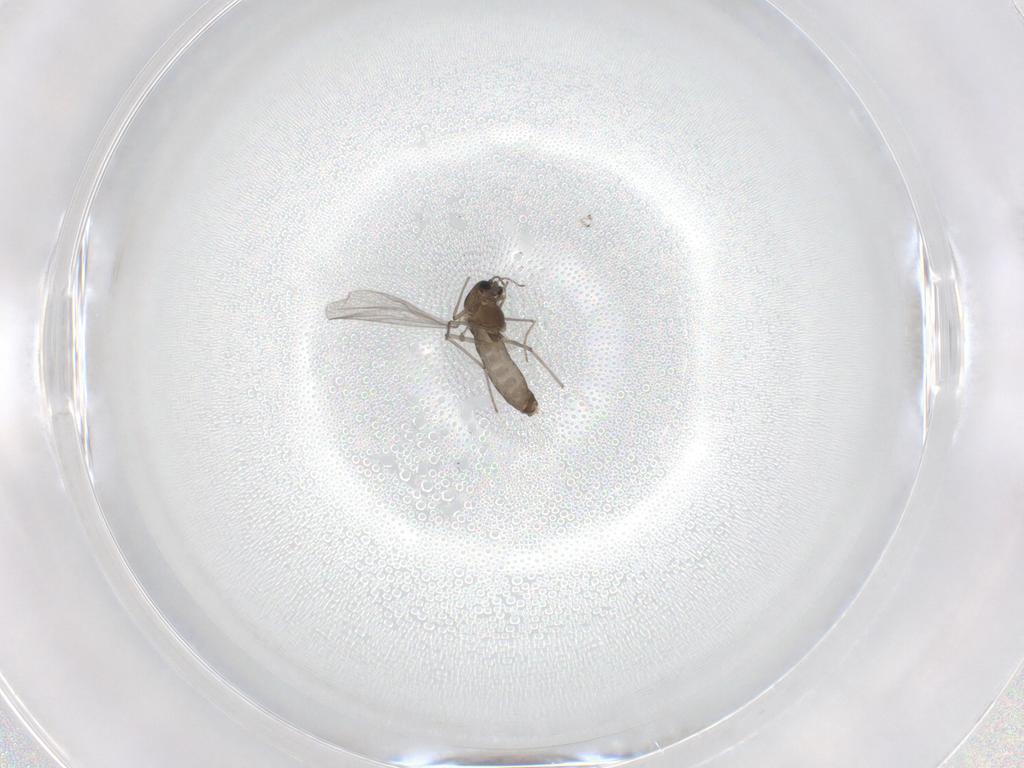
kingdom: Animalia
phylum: Arthropoda
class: Insecta
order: Diptera
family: Chironomidae
